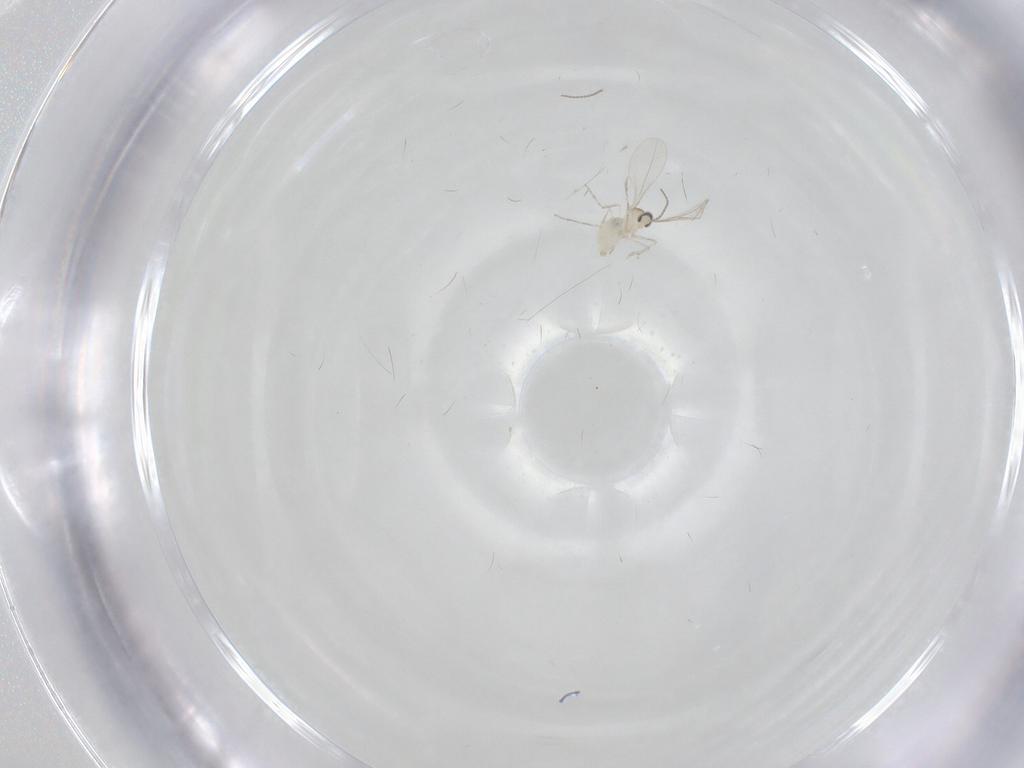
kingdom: Animalia
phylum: Arthropoda
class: Insecta
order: Diptera
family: Cecidomyiidae
